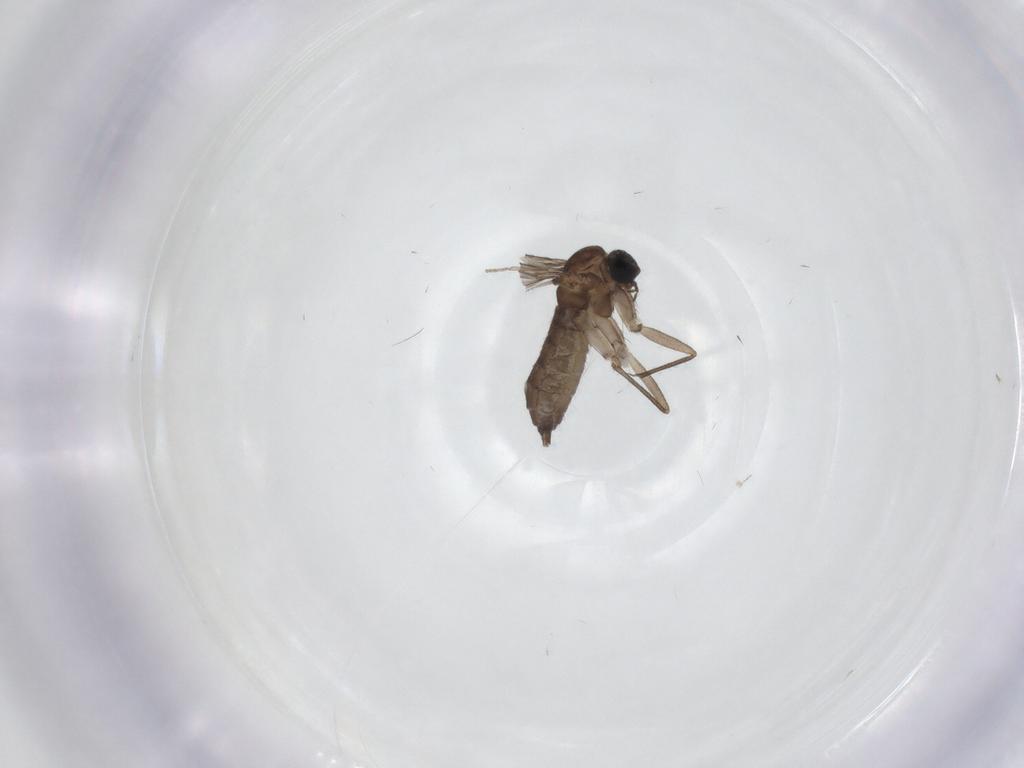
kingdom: Animalia
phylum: Arthropoda
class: Insecta
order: Diptera
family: Sciaridae
